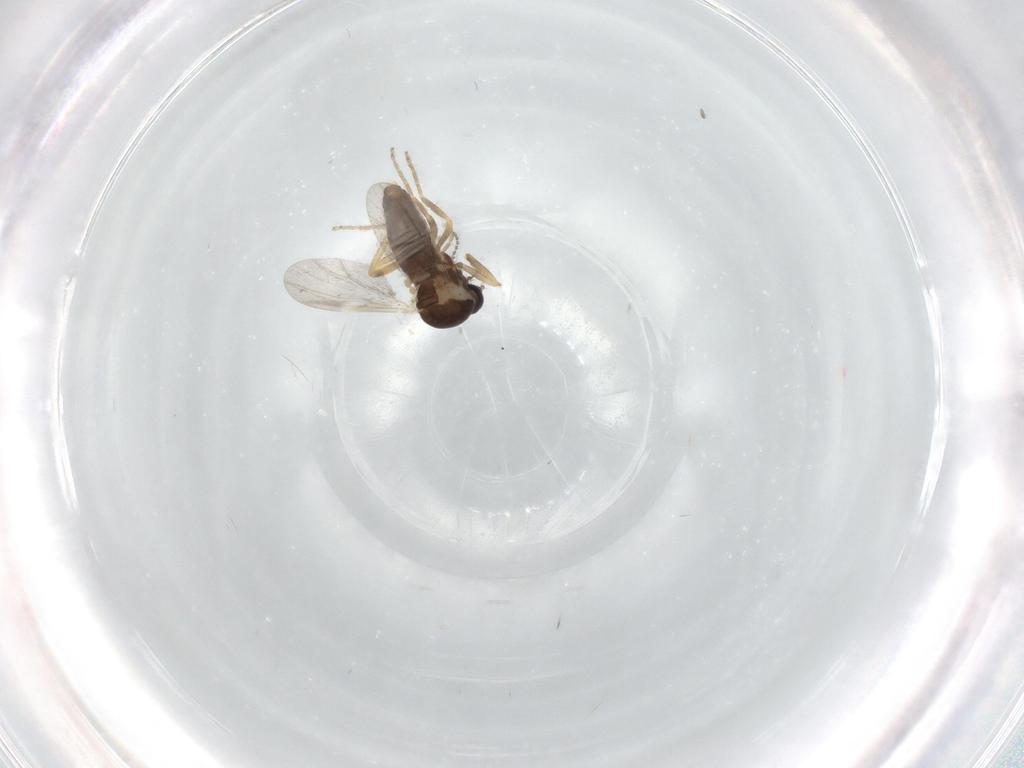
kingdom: Animalia
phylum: Arthropoda
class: Insecta
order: Diptera
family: Ceratopogonidae
